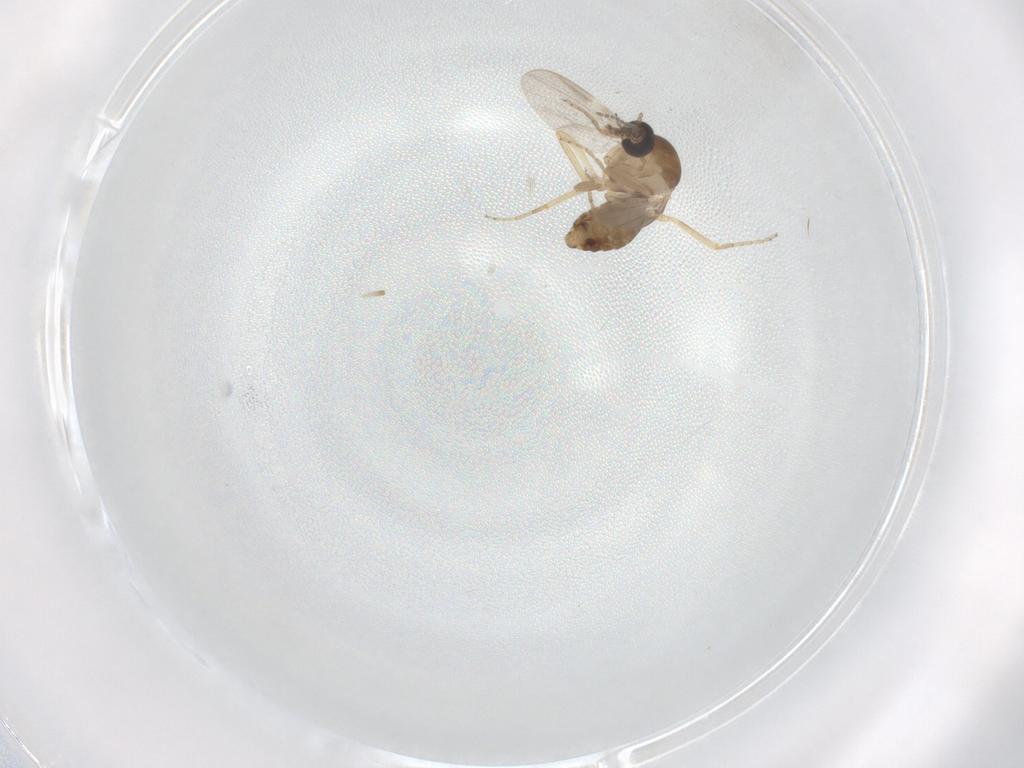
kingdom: Animalia
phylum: Arthropoda
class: Insecta
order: Diptera
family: Ceratopogonidae
